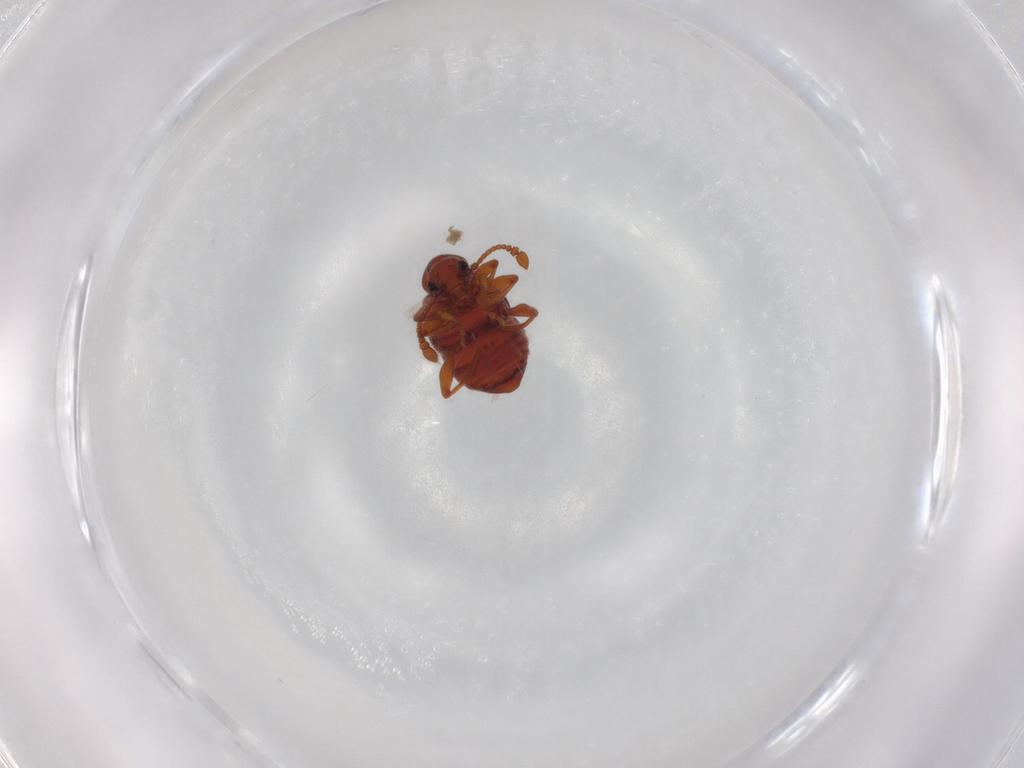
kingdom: Animalia
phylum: Arthropoda
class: Insecta
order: Coleoptera
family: Staphylinidae
